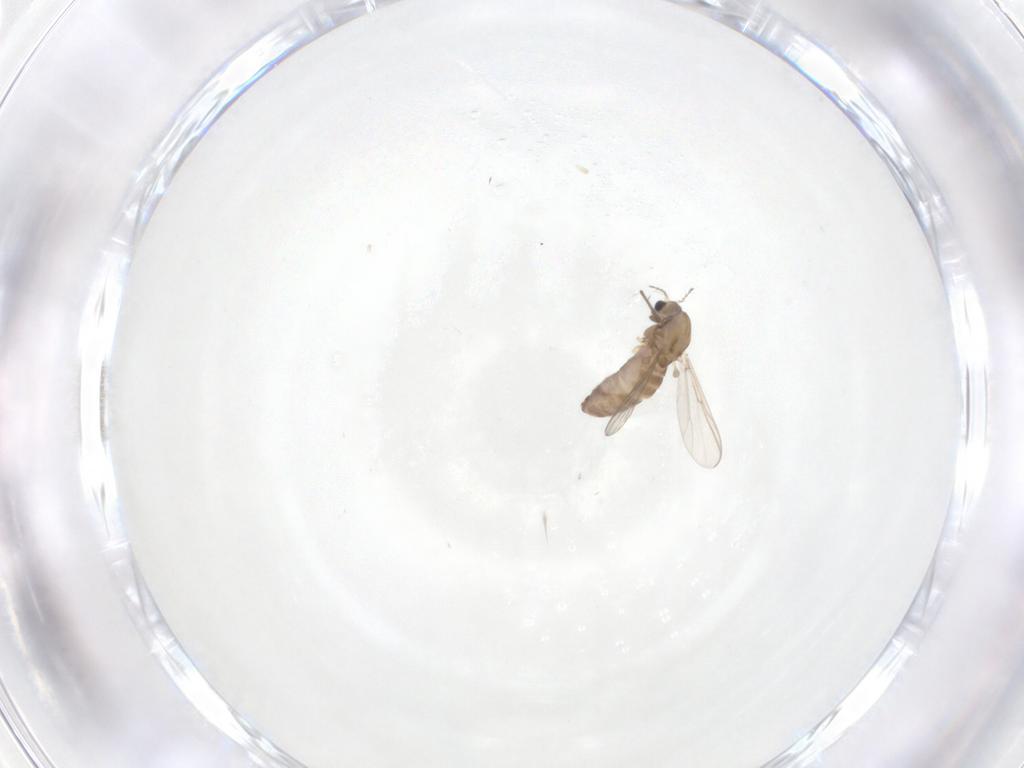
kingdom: Animalia
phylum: Arthropoda
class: Insecta
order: Diptera
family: Chironomidae
